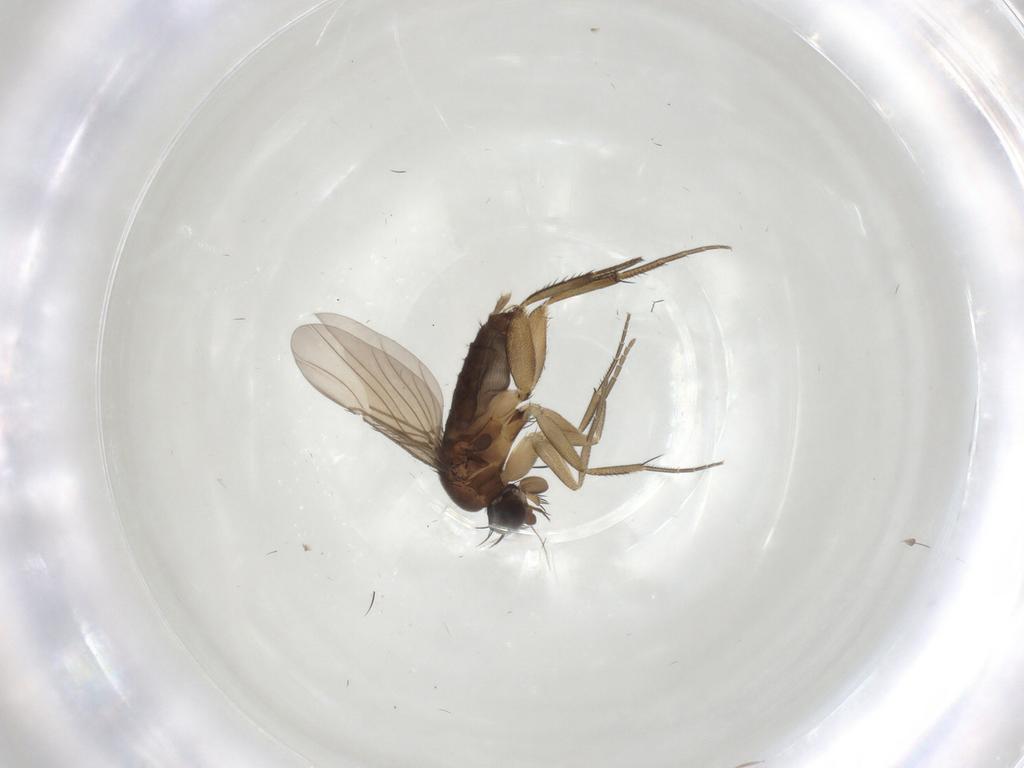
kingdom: Animalia
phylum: Arthropoda
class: Insecta
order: Diptera
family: Psychodidae
